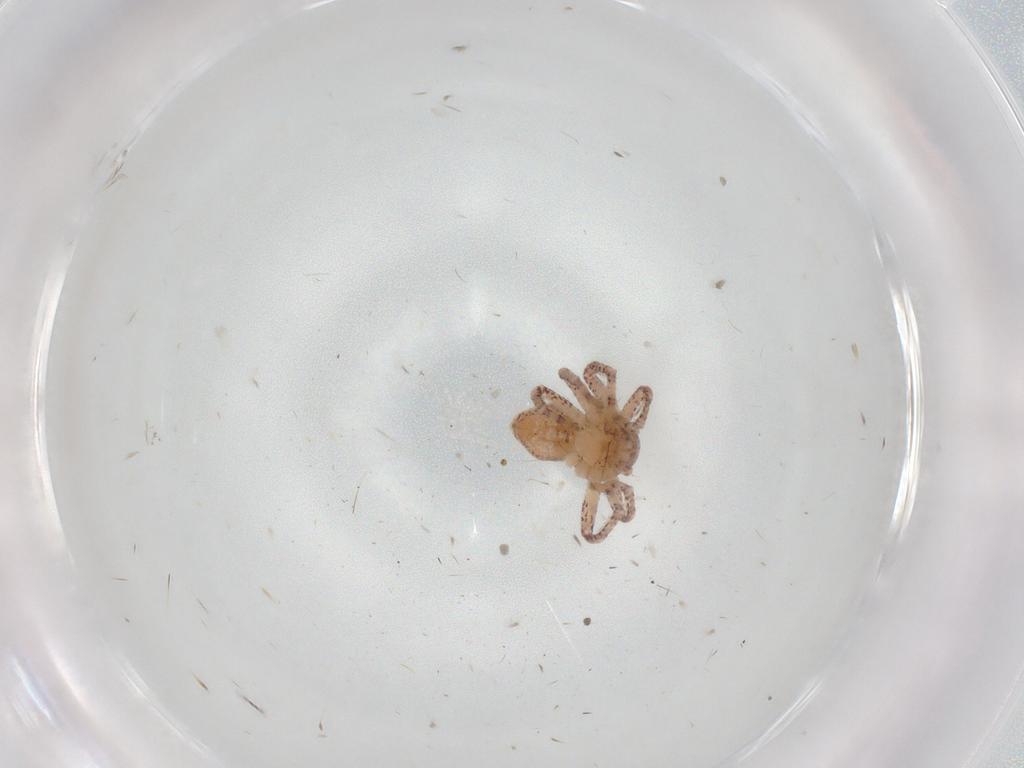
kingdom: Animalia
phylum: Arthropoda
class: Arachnida
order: Araneae
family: Philodromidae
